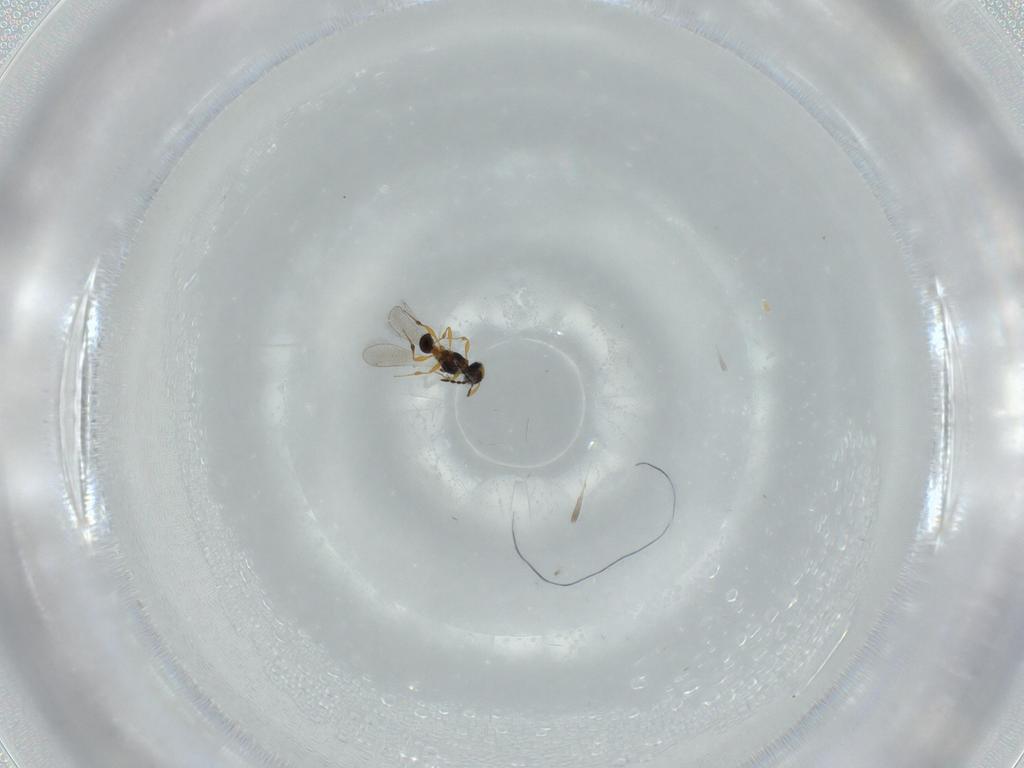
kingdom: Animalia
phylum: Arthropoda
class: Insecta
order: Hymenoptera
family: Platygastridae
